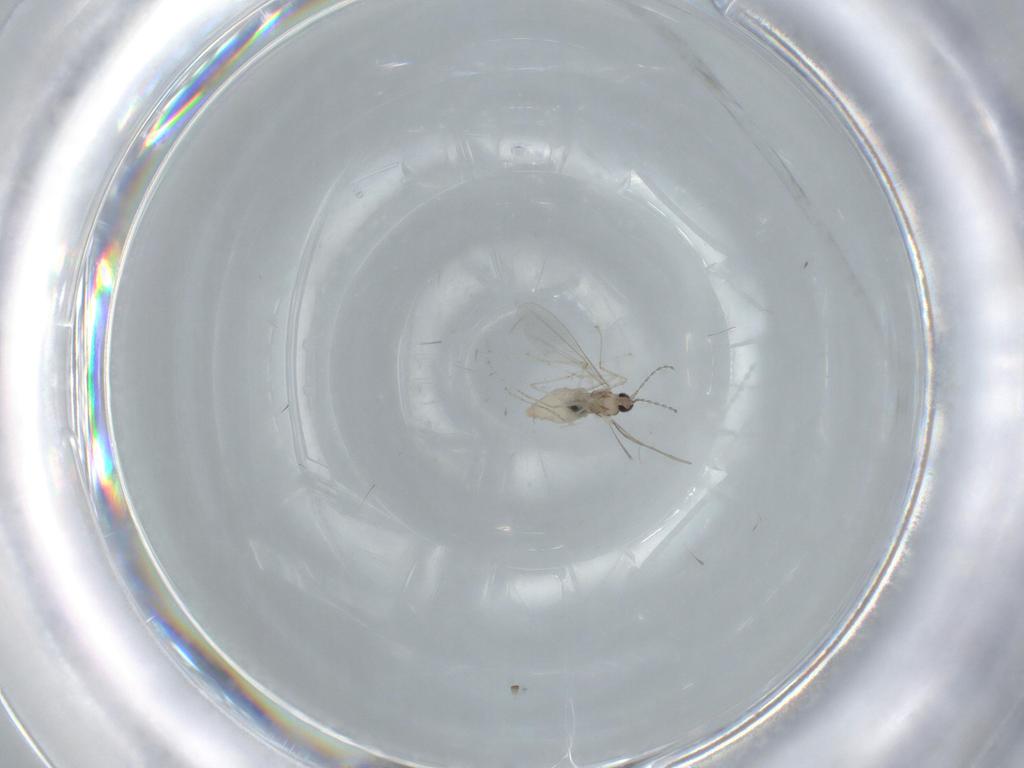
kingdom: Animalia
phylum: Arthropoda
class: Insecta
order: Diptera
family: Cecidomyiidae
